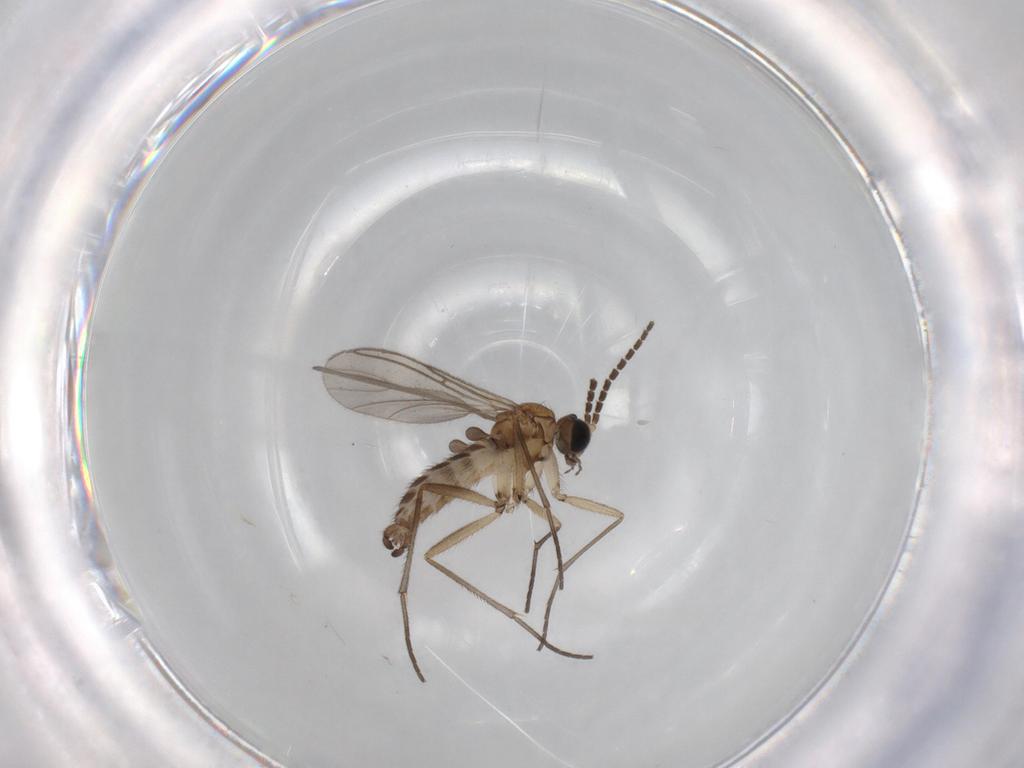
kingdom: Animalia
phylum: Arthropoda
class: Insecta
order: Diptera
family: Sciaridae
